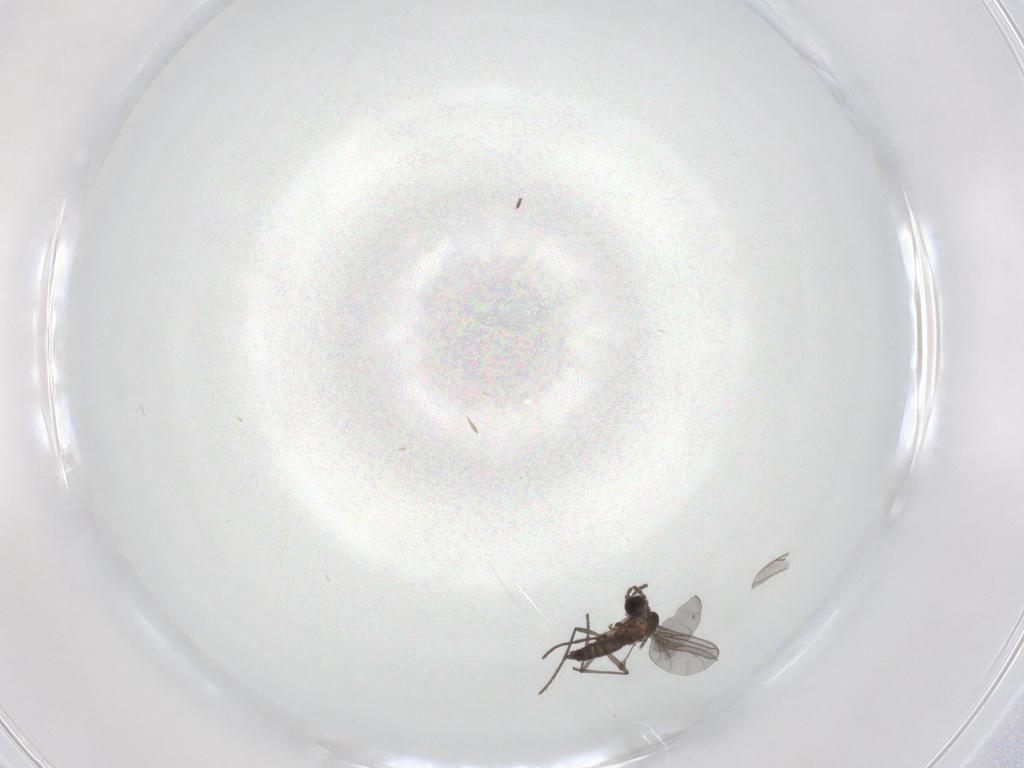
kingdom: Animalia
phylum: Arthropoda
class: Insecta
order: Diptera
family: Sciaridae
